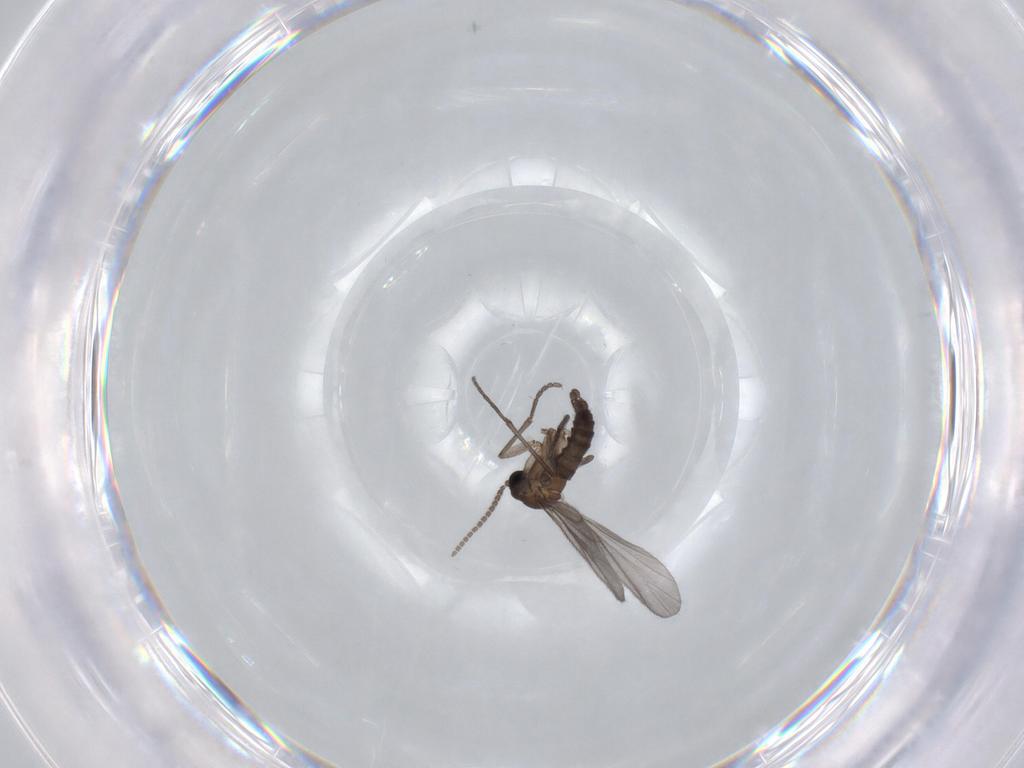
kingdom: Animalia
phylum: Arthropoda
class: Insecta
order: Diptera
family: Sciaridae
